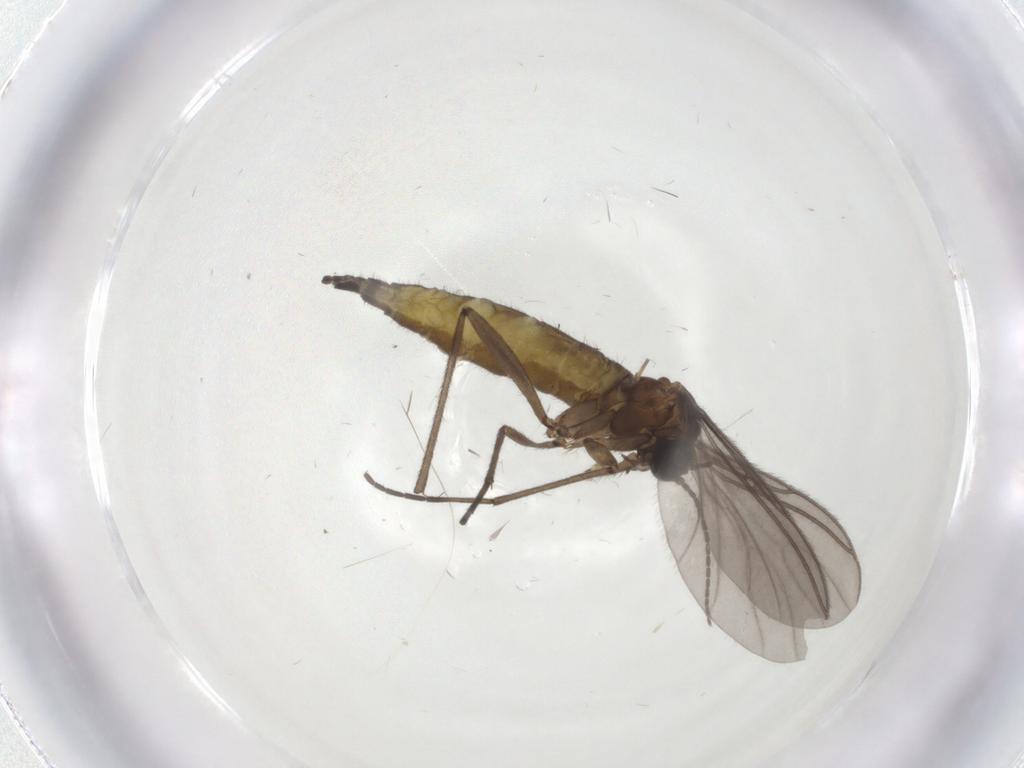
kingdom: Animalia
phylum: Arthropoda
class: Insecta
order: Diptera
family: Sciaridae
